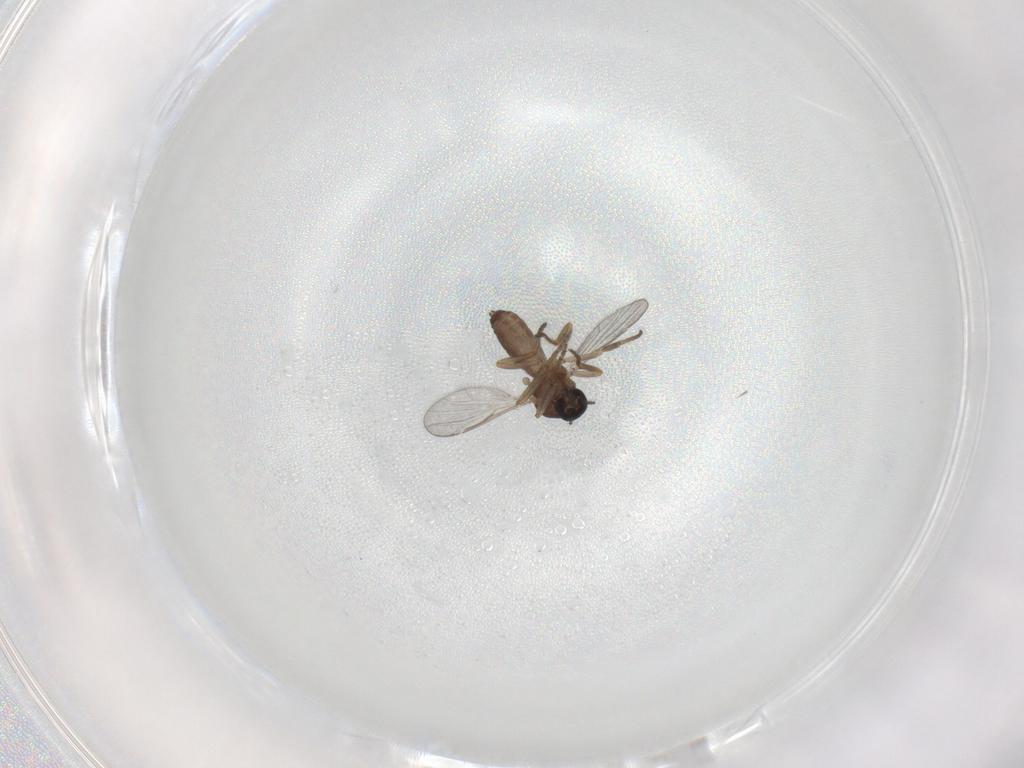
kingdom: Animalia
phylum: Arthropoda
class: Insecta
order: Diptera
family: Ceratopogonidae
